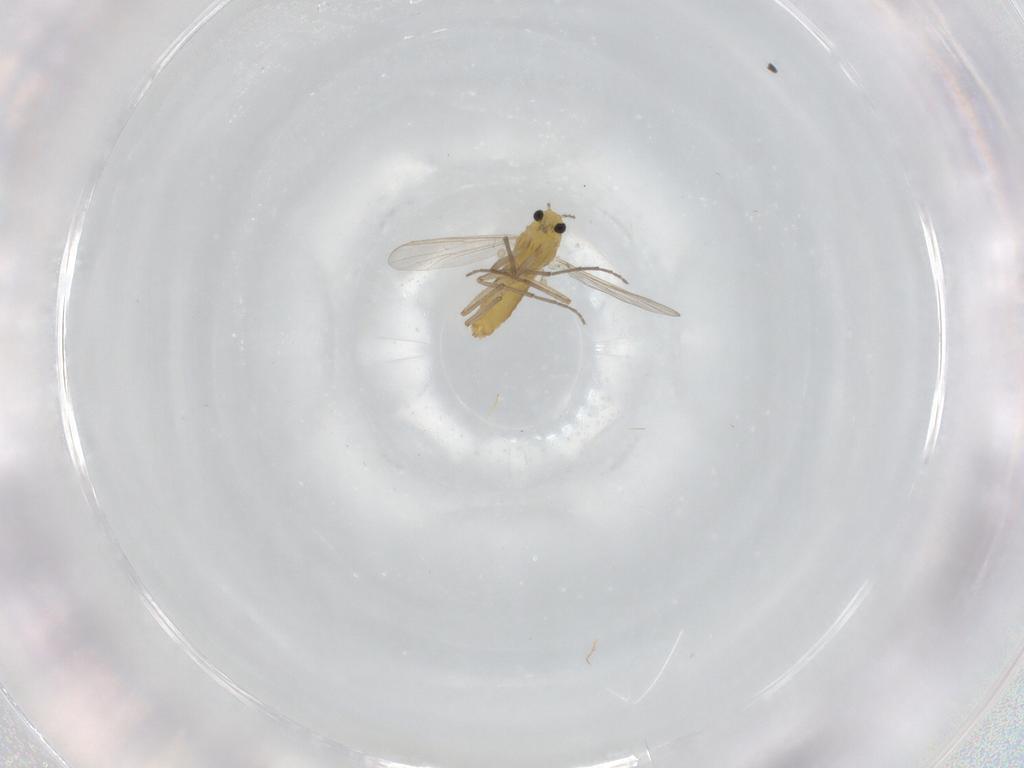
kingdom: Animalia
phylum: Arthropoda
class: Insecta
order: Diptera
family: Chironomidae
